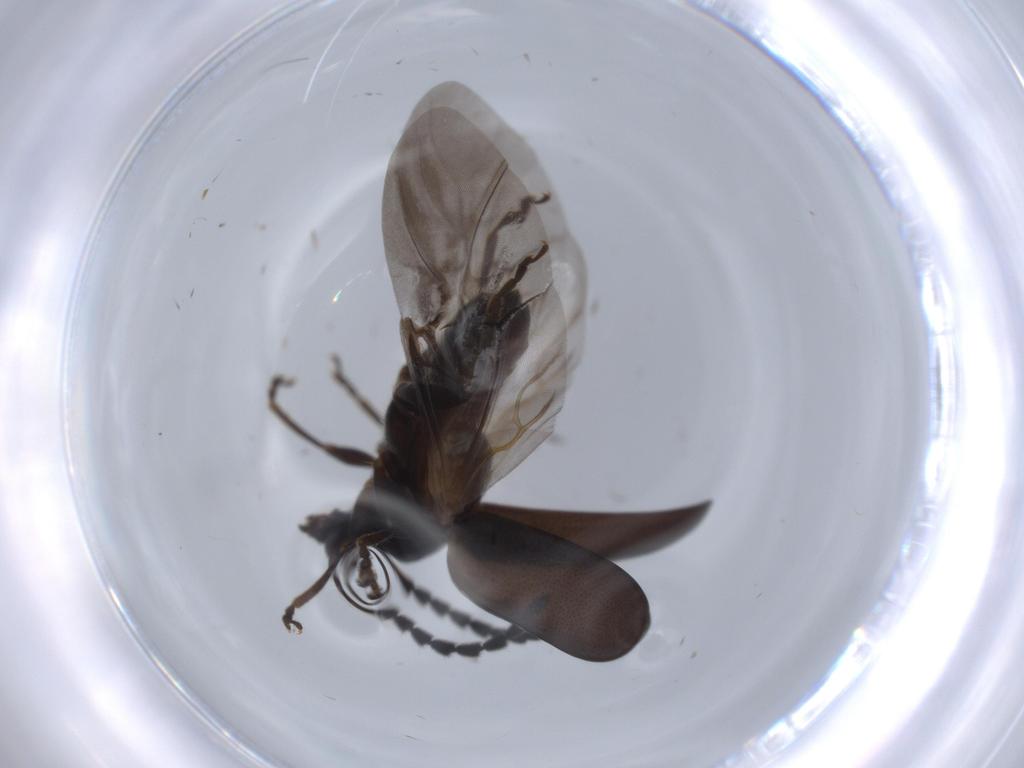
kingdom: Animalia
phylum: Arthropoda
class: Insecta
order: Coleoptera
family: Chrysomelidae
